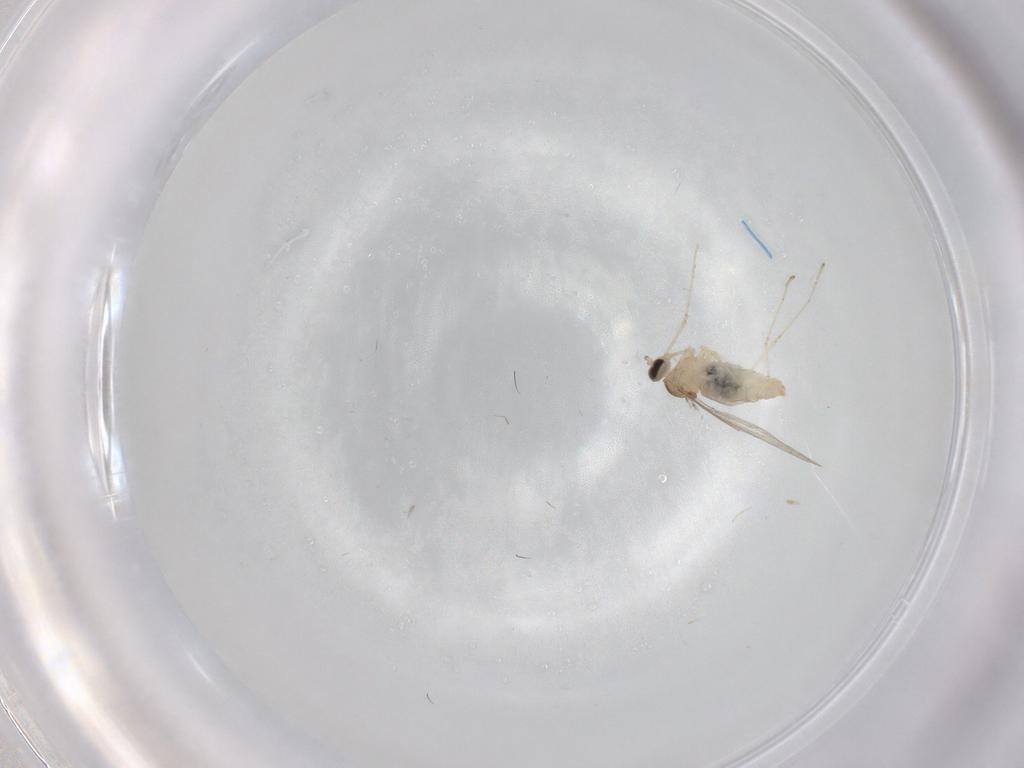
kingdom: Animalia
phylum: Arthropoda
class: Insecta
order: Diptera
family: Cecidomyiidae
